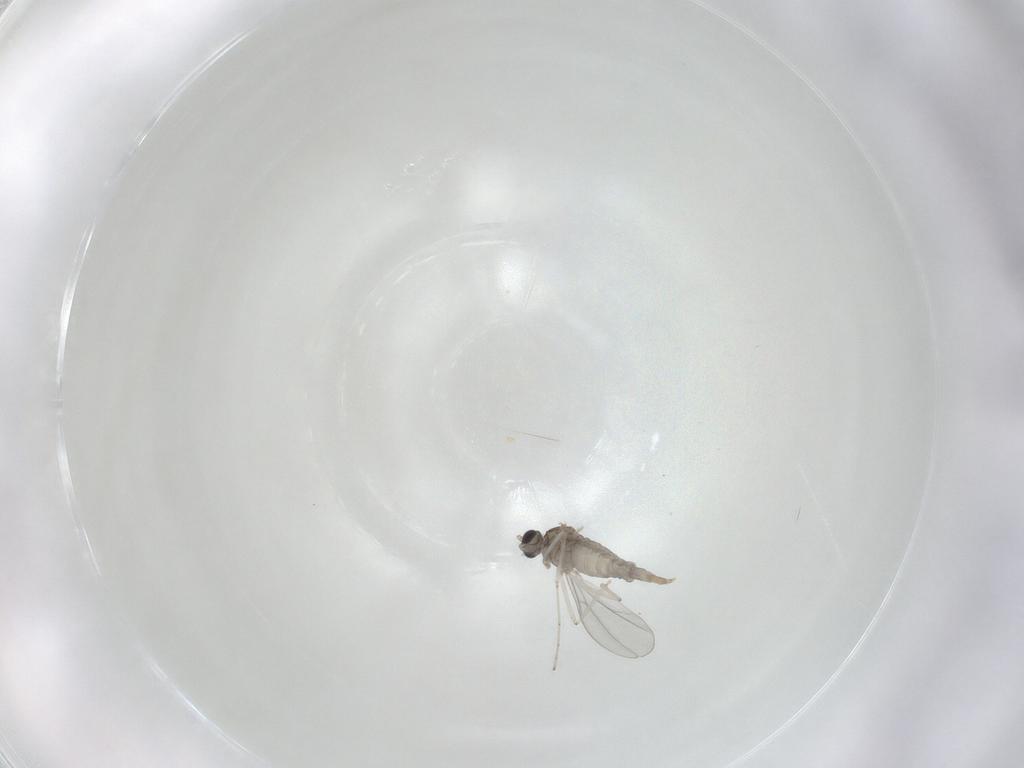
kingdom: Animalia
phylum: Arthropoda
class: Insecta
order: Diptera
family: Cecidomyiidae
